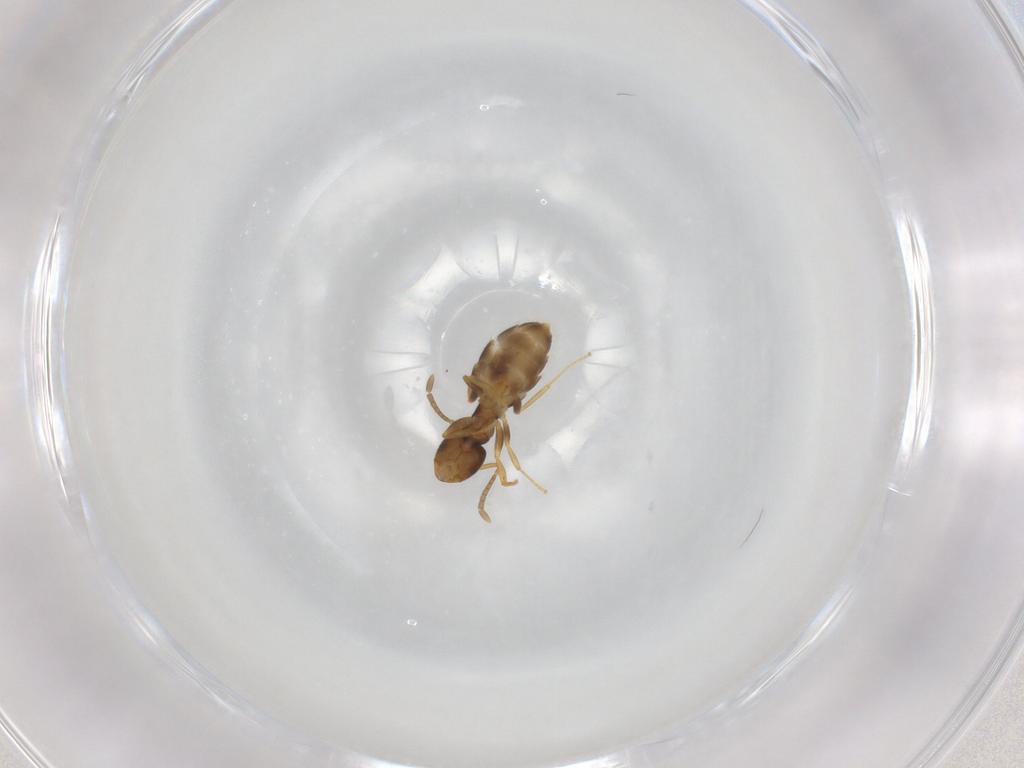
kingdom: Animalia
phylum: Arthropoda
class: Insecta
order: Hymenoptera
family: Formicidae
